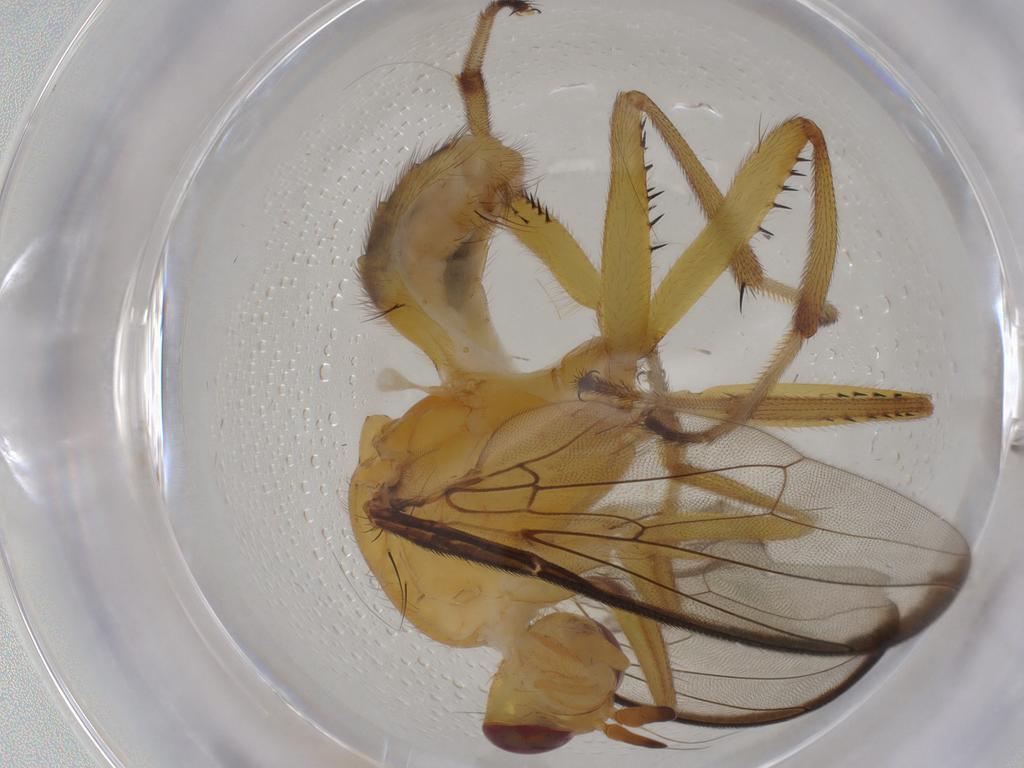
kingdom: Animalia
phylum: Arthropoda
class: Insecta
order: Diptera
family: Richardiidae
